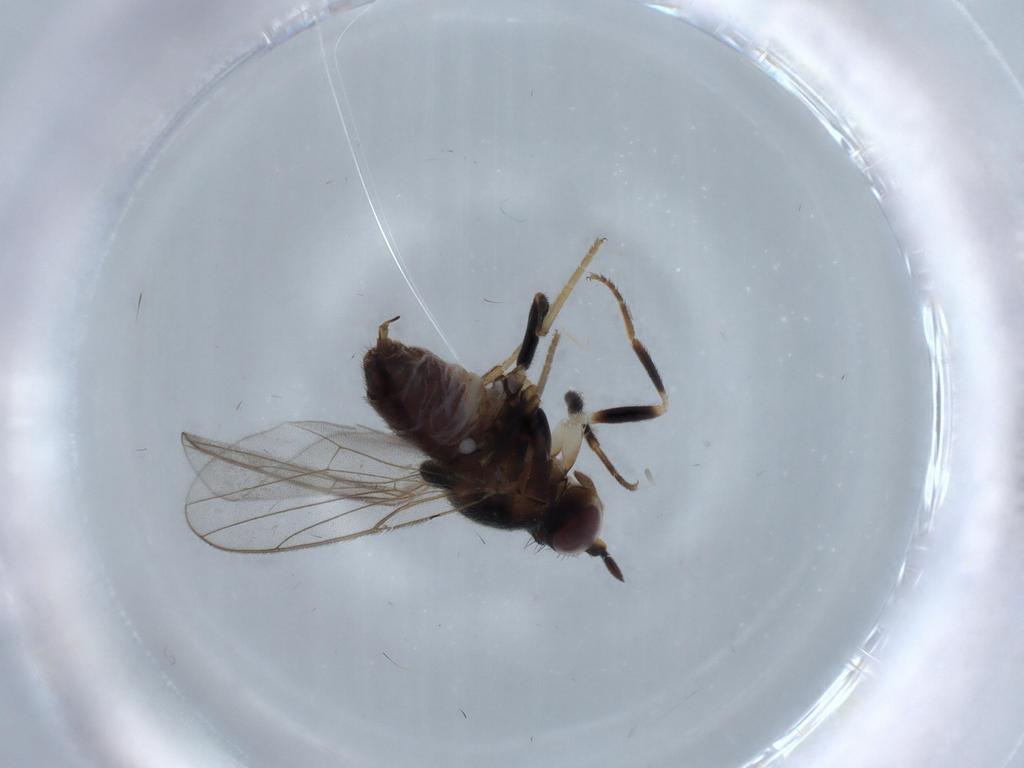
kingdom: Animalia
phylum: Arthropoda
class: Insecta
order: Diptera
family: Chloropidae
